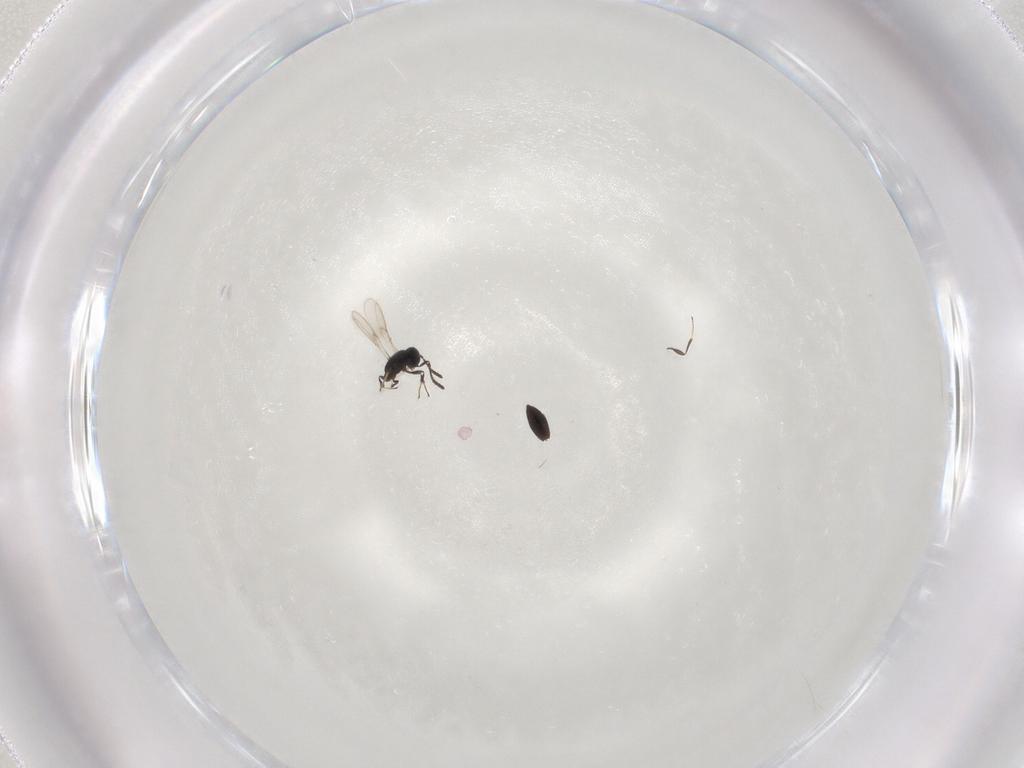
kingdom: Animalia
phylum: Arthropoda
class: Insecta
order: Hymenoptera
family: Scelionidae
